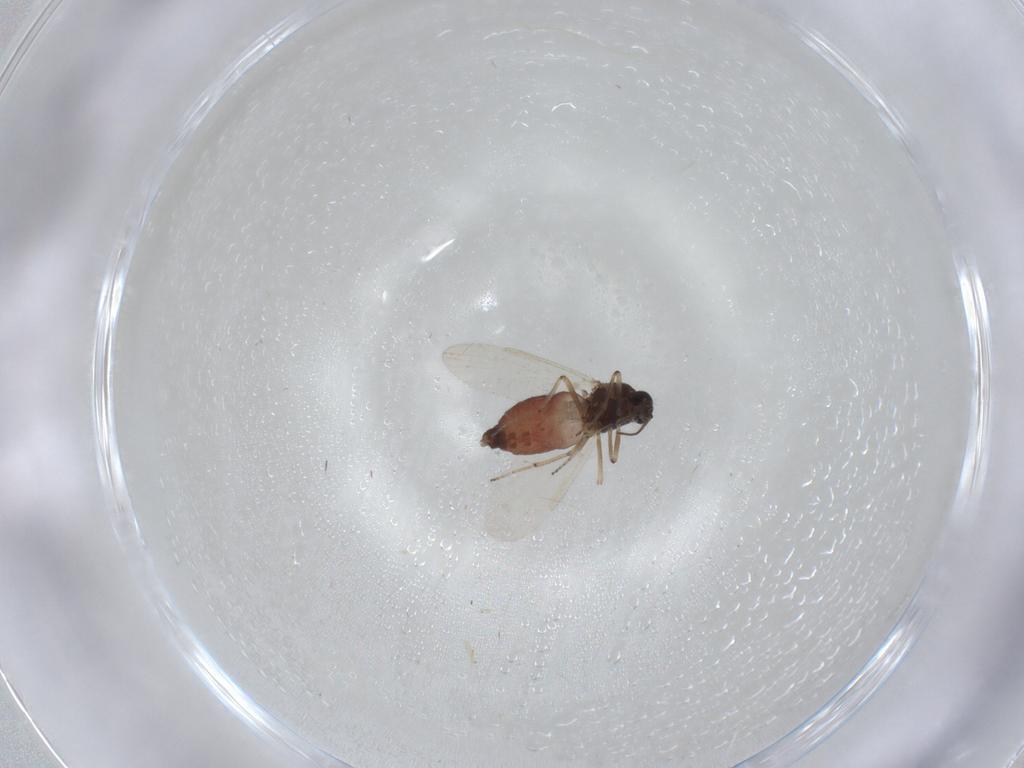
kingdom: Animalia
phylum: Arthropoda
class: Insecta
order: Diptera
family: Ceratopogonidae
